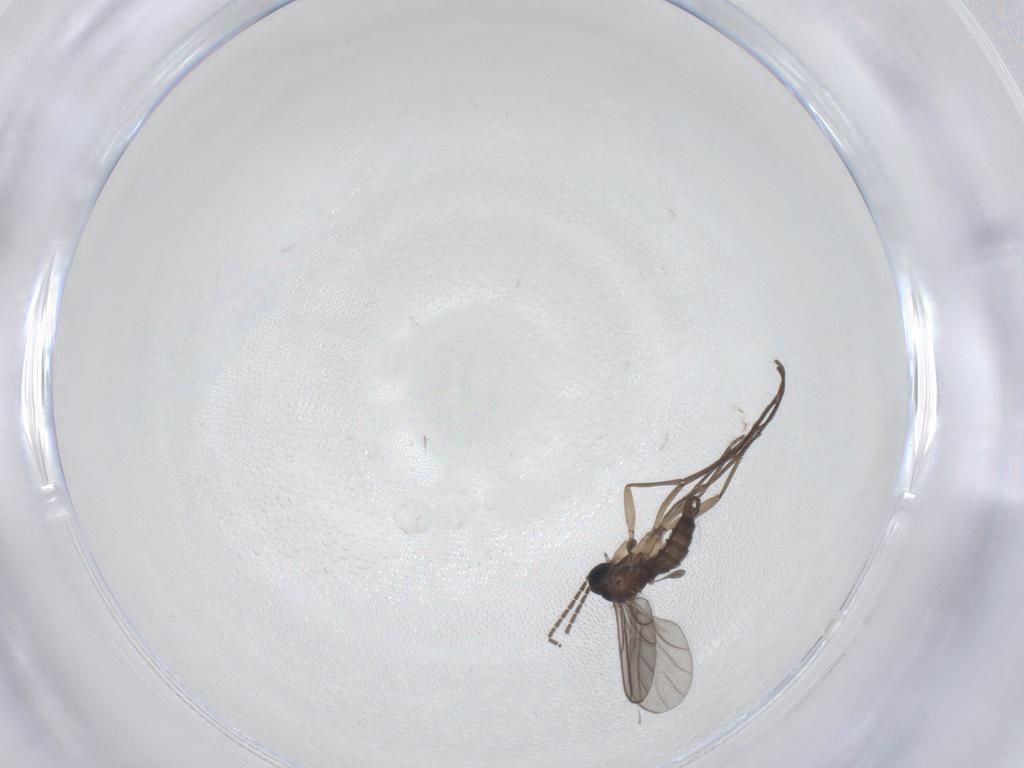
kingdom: Animalia
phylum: Arthropoda
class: Insecta
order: Diptera
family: Sciaridae
